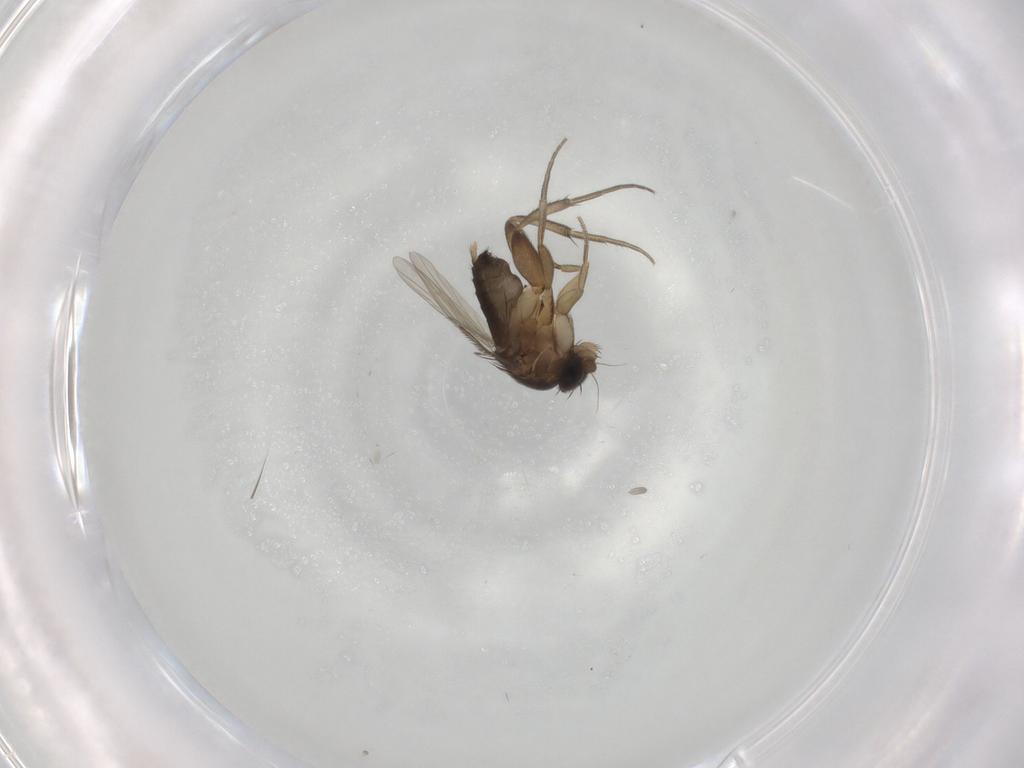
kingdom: Animalia
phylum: Arthropoda
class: Insecta
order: Diptera
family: Phoridae
